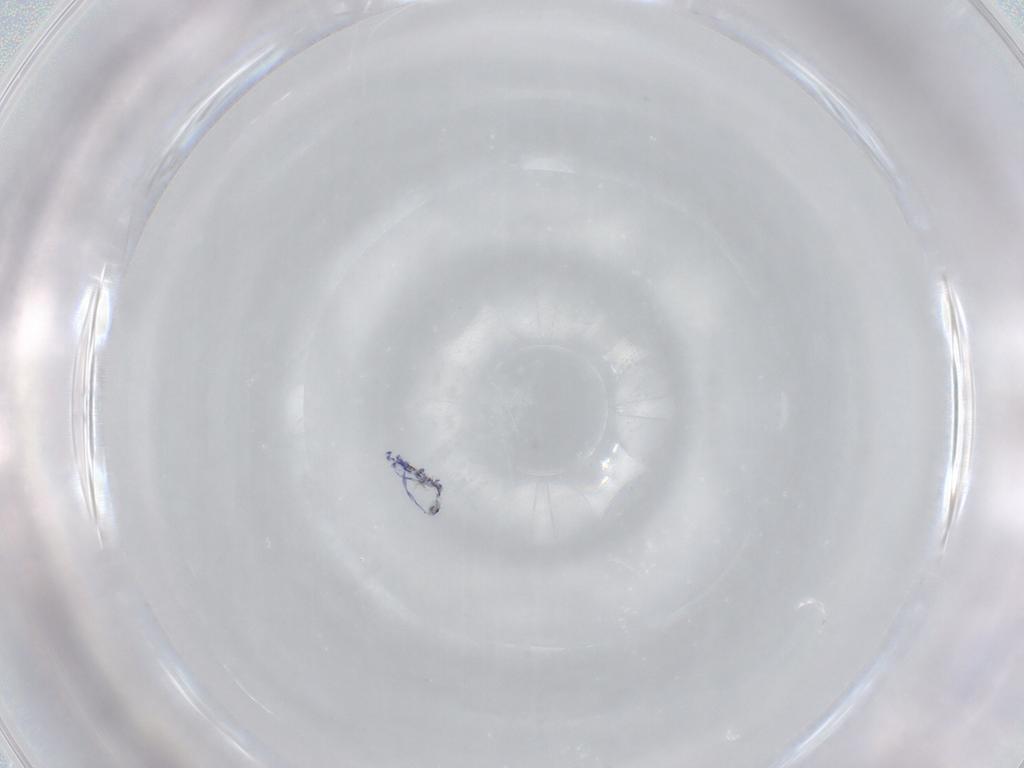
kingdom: Animalia
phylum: Arthropoda
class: Collembola
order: Entomobryomorpha
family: Entomobryidae
